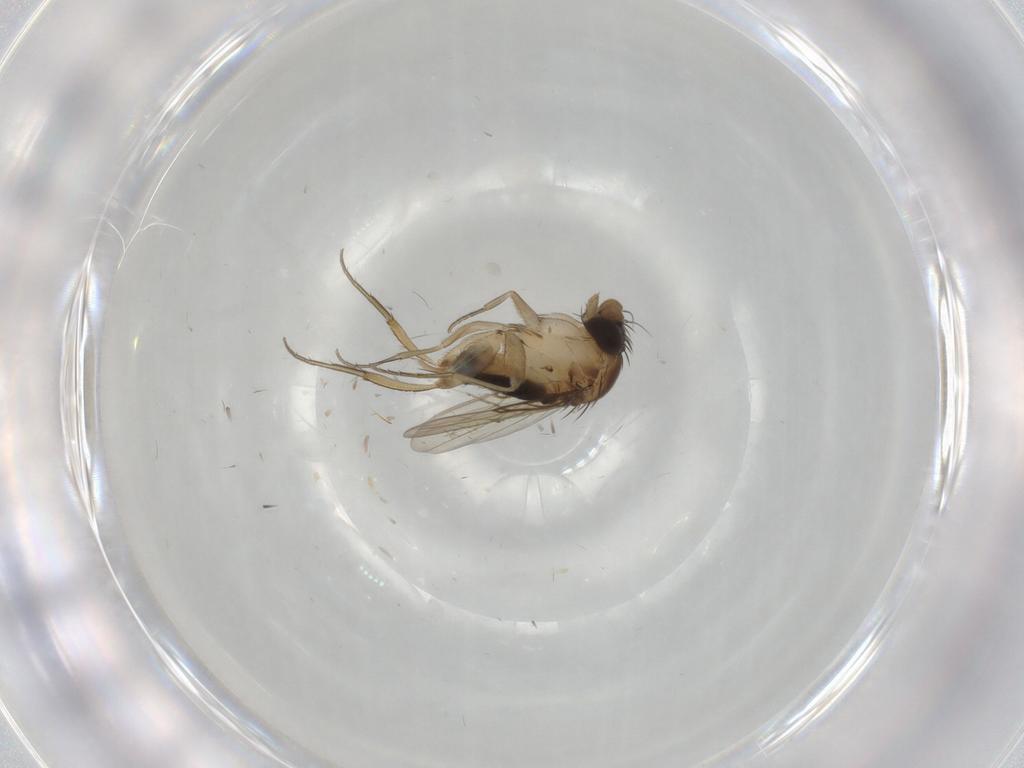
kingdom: Animalia
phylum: Arthropoda
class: Insecta
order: Diptera
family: Phoridae
